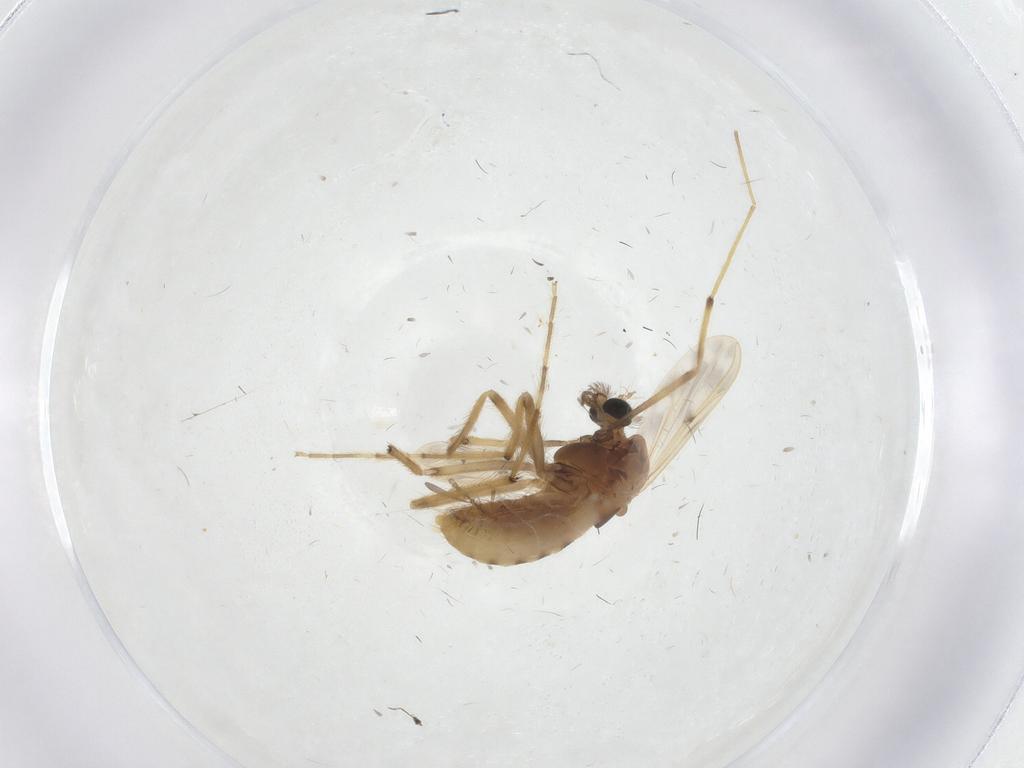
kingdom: Animalia
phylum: Arthropoda
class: Insecta
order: Diptera
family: Chironomidae
